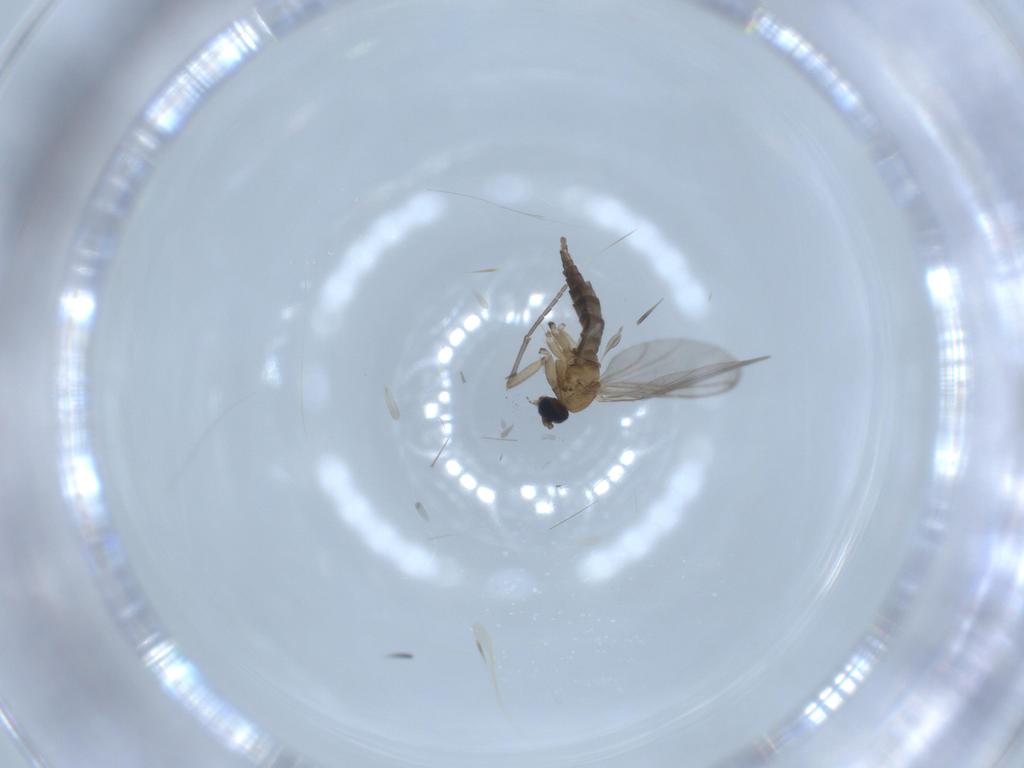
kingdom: Animalia
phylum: Arthropoda
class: Insecta
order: Diptera
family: Sciaridae
